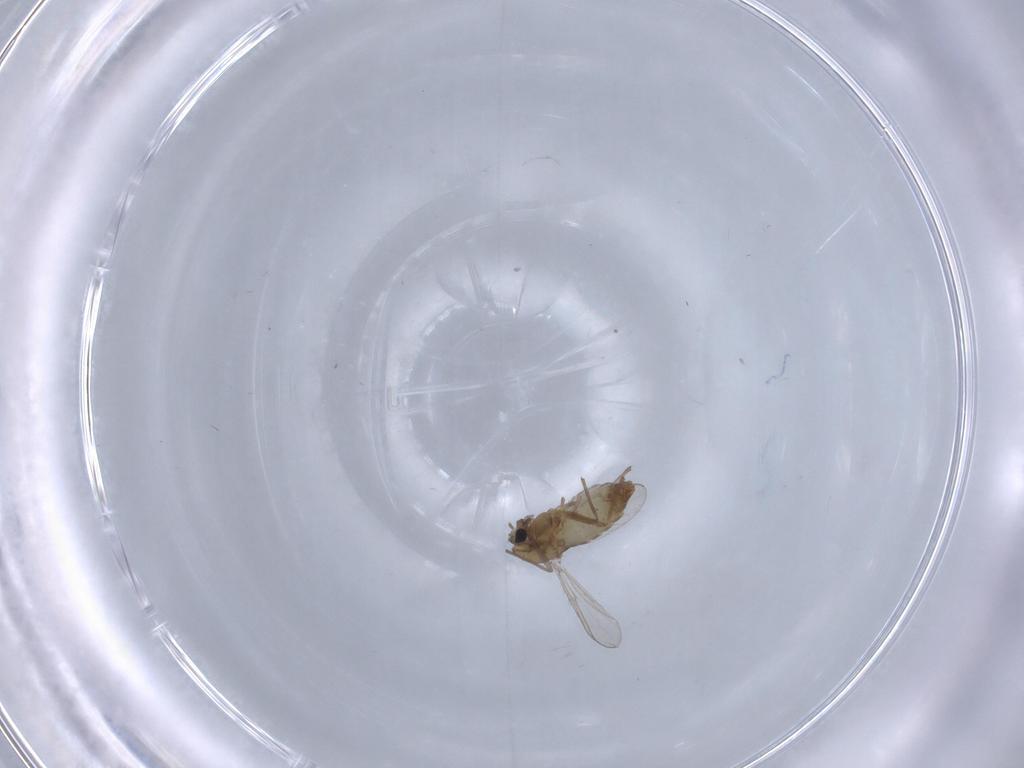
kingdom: Animalia
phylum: Arthropoda
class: Insecta
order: Diptera
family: Chironomidae
